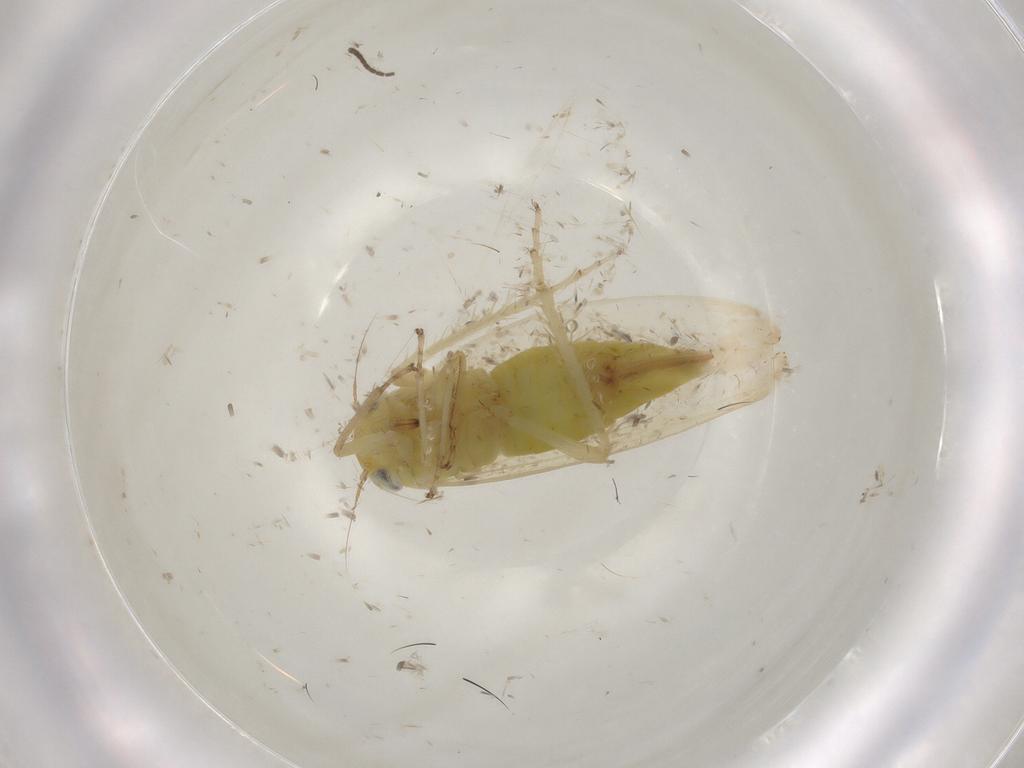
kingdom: Animalia
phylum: Arthropoda
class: Insecta
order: Hemiptera
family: Cicadellidae
